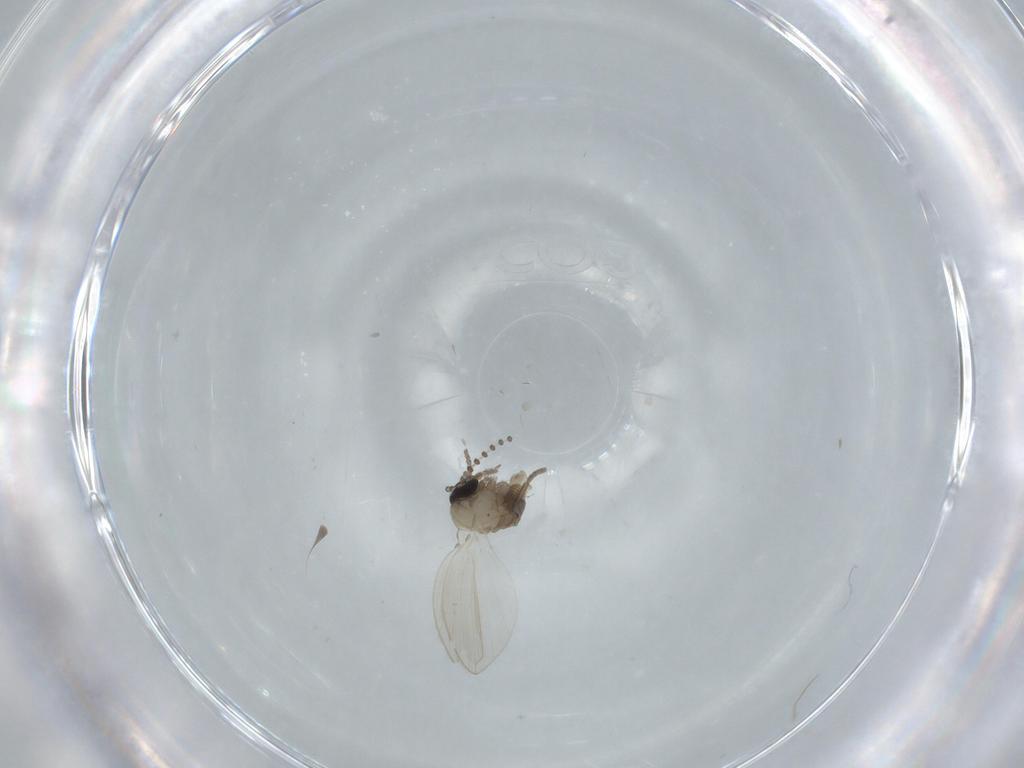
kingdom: Animalia
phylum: Arthropoda
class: Insecta
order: Diptera
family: Psychodidae
